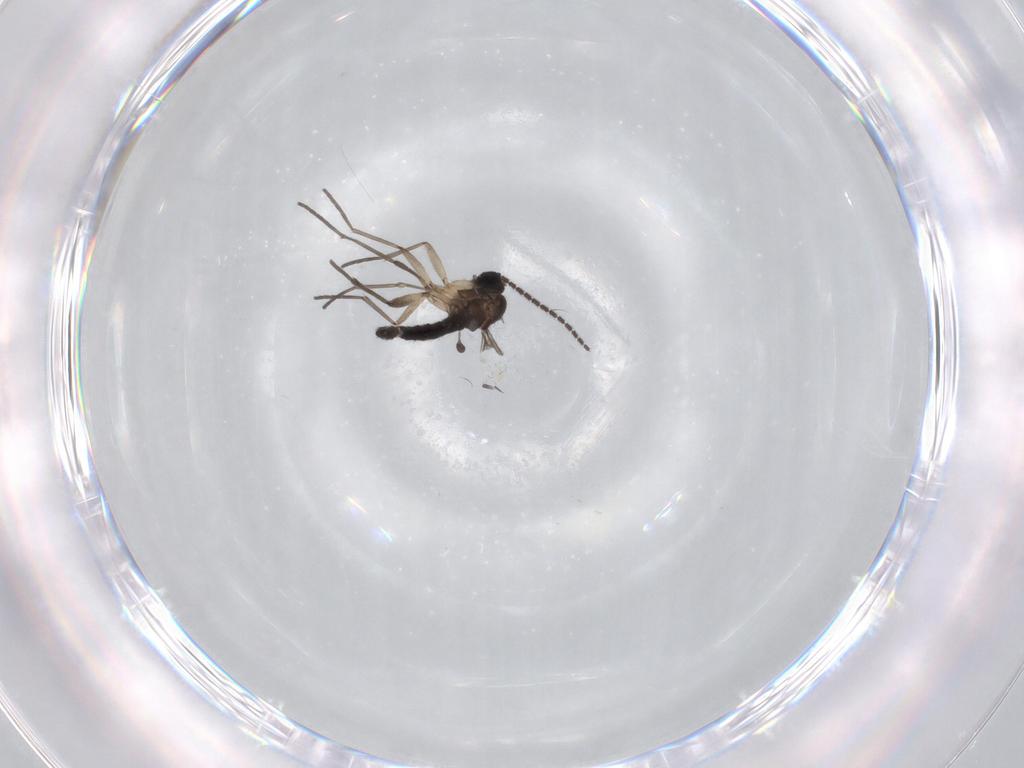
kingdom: Animalia
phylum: Arthropoda
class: Insecta
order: Diptera
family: Sciaridae
